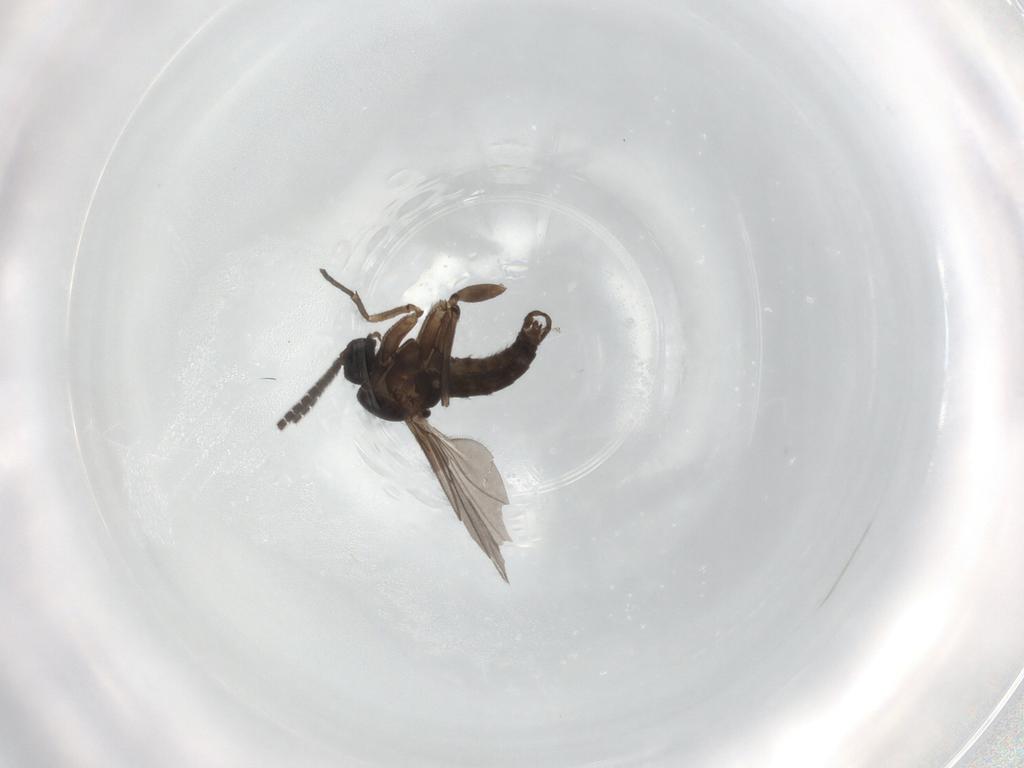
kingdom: Animalia
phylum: Arthropoda
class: Insecta
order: Diptera
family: Sciaridae
